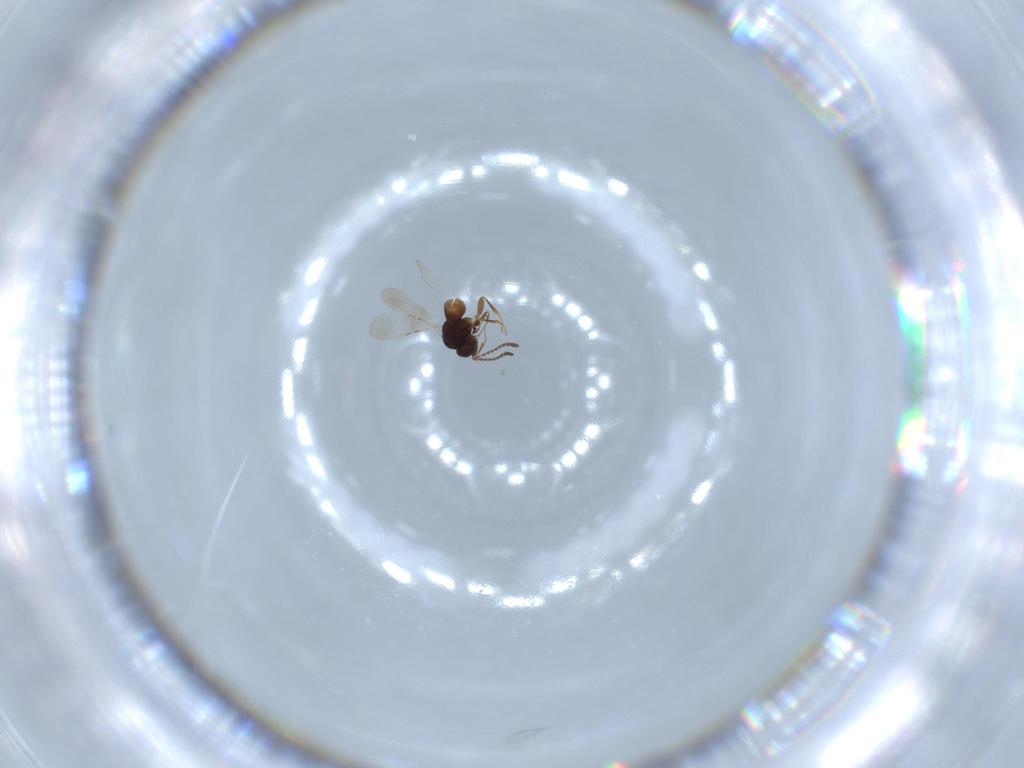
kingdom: Animalia
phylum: Arthropoda
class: Insecta
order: Hymenoptera
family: Formicidae
